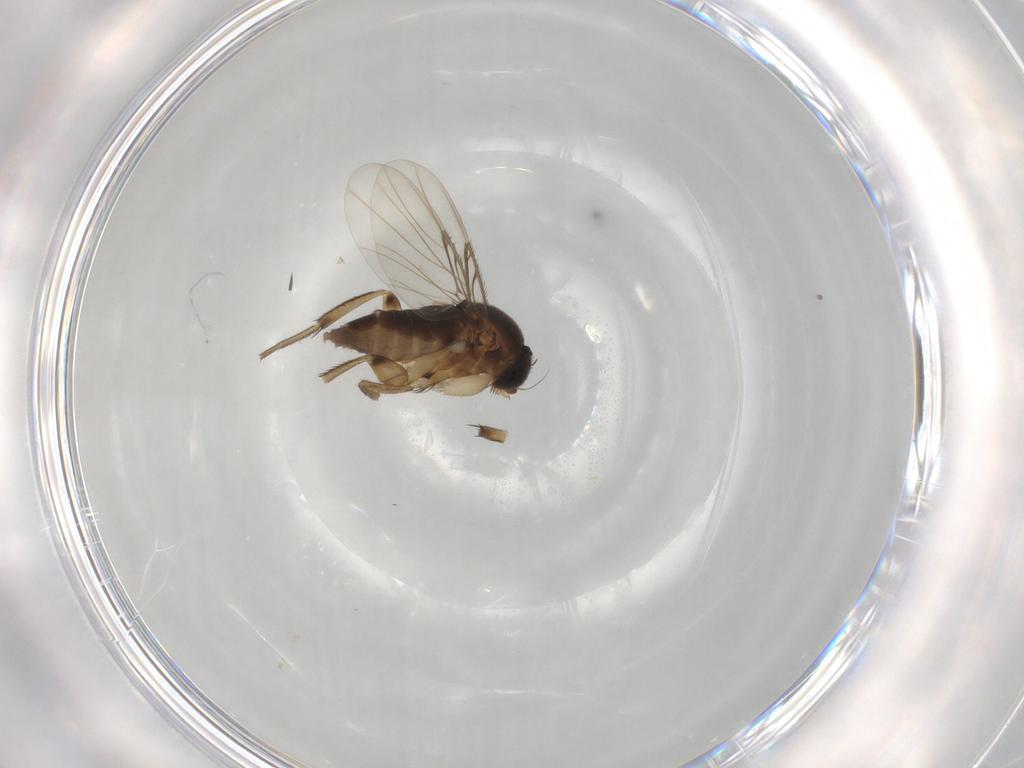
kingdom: Animalia
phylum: Arthropoda
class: Insecta
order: Diptera
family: Phoridae
